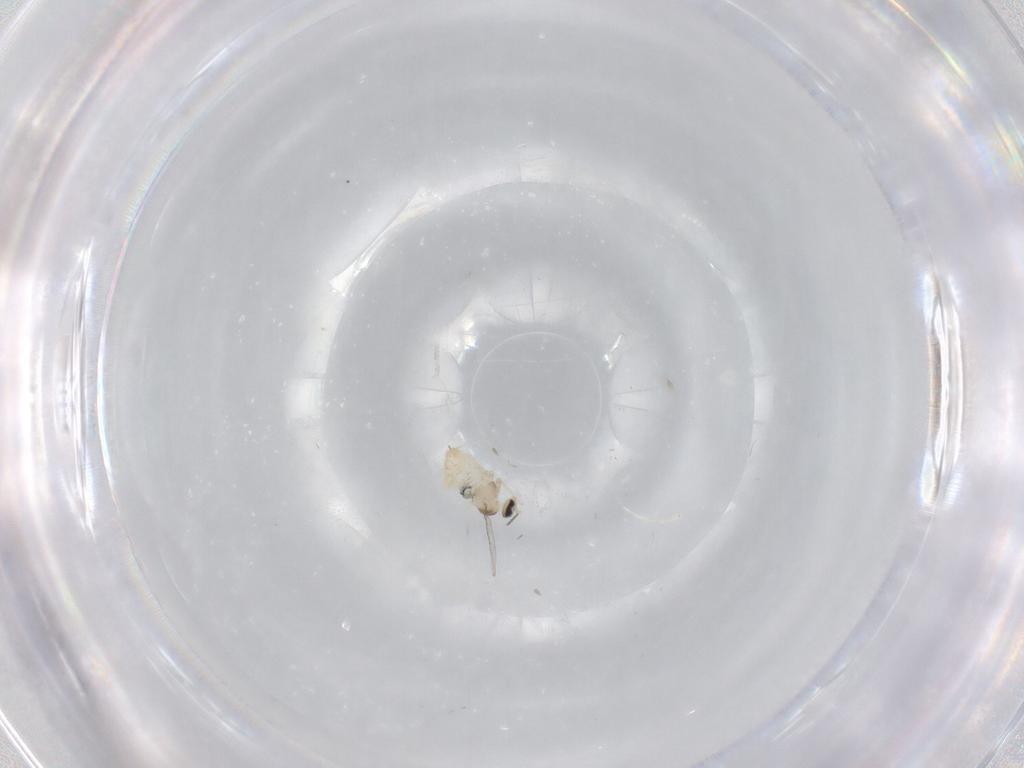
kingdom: Animalia
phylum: Arthropoda
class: Insecta
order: Diptera
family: Cecidomyiidae
